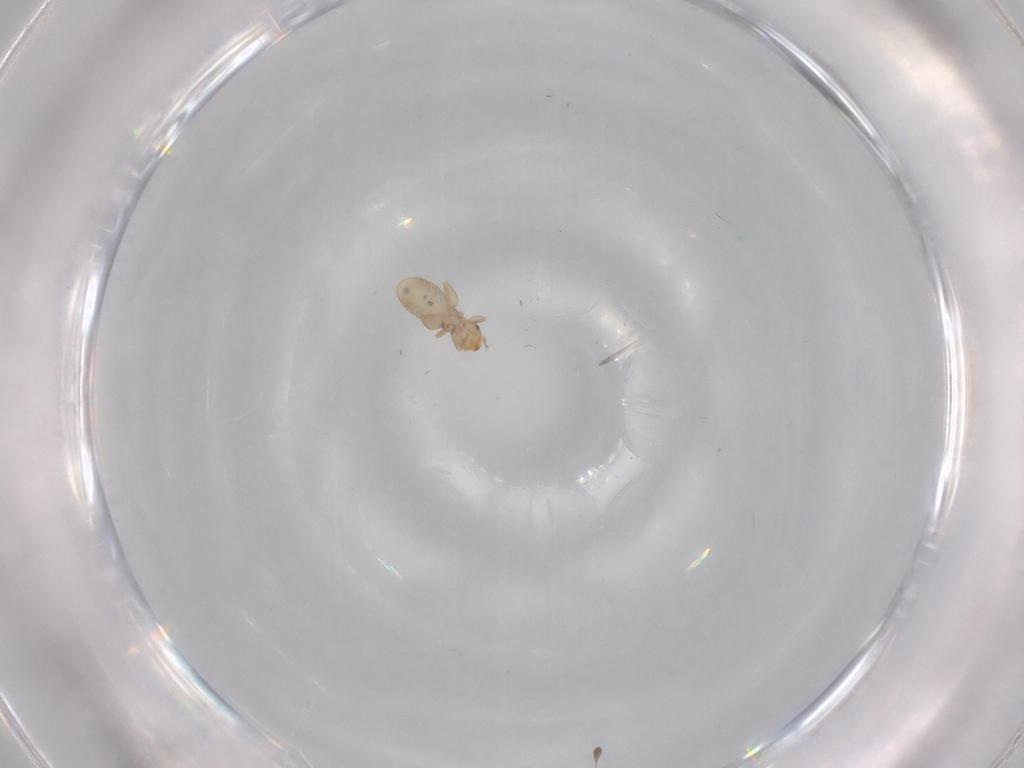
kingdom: Animalia
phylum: Arthropoda
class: Insecta
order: Psocodea
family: Liposcelididae
